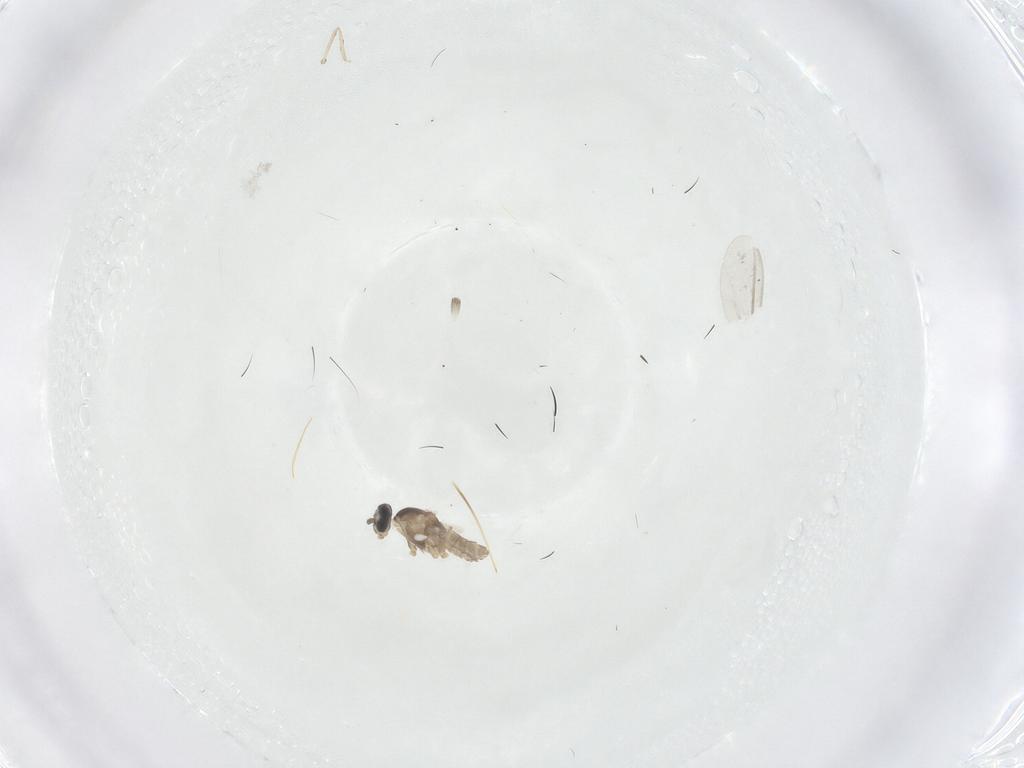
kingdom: Animalia
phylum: Arthropoda
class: Insecta
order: Diptera
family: Cecidomyiidae
